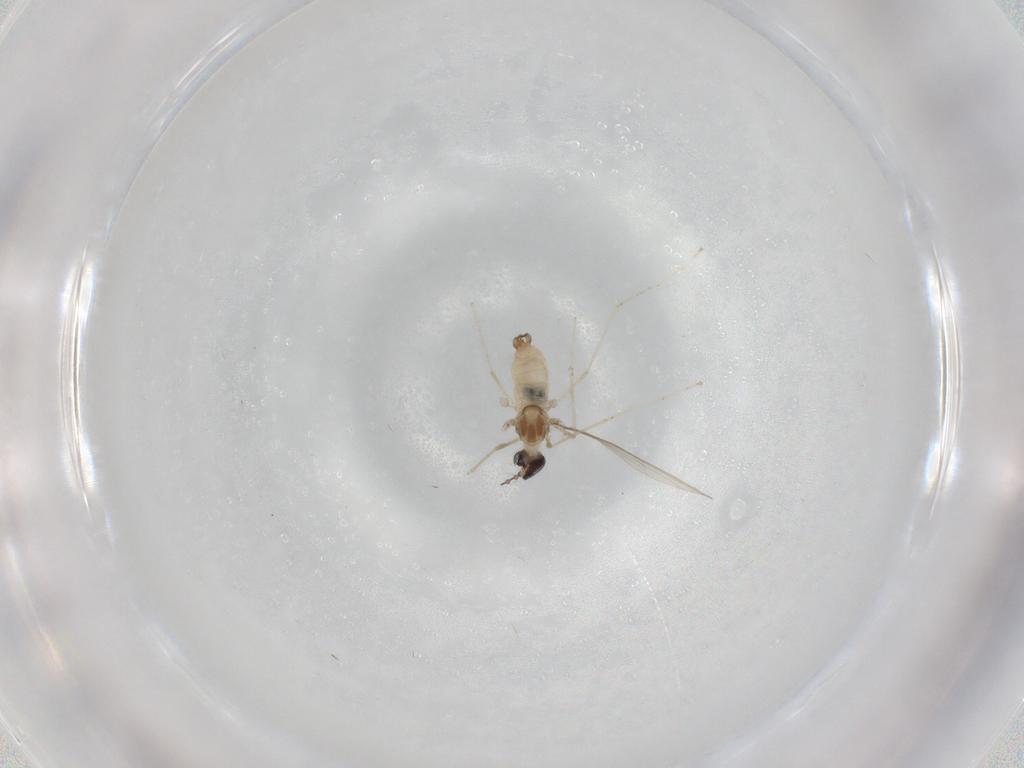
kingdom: Animalia
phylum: Arthropoda
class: Insecta
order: Diptera
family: Cecidomyiidae
